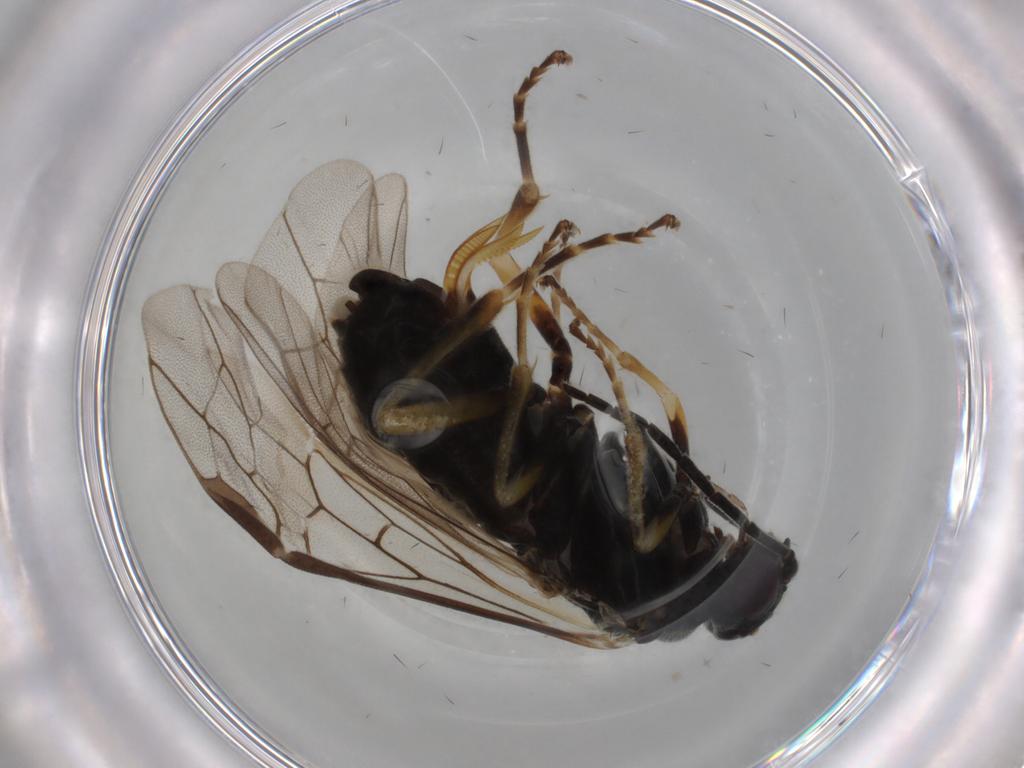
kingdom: Animalia
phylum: Arthropoda
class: Insecta
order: Hymenoptera
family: Tenthredinidae
